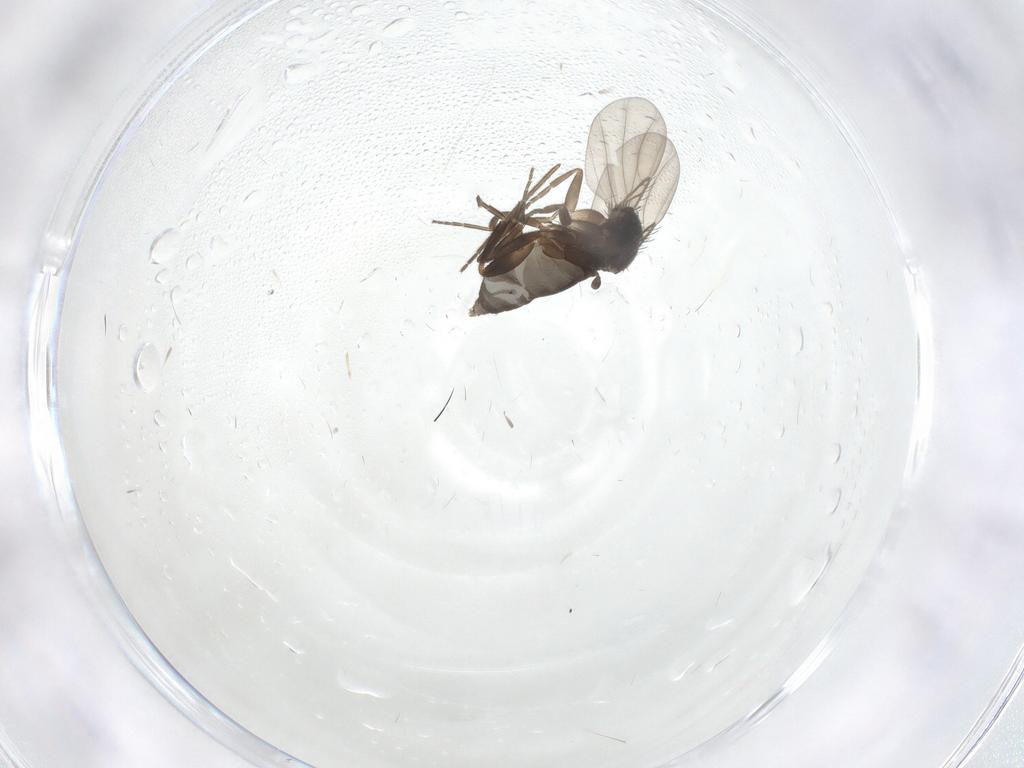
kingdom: Animalia
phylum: Arthropoda
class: Insecta
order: Diptera
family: Phoridae
